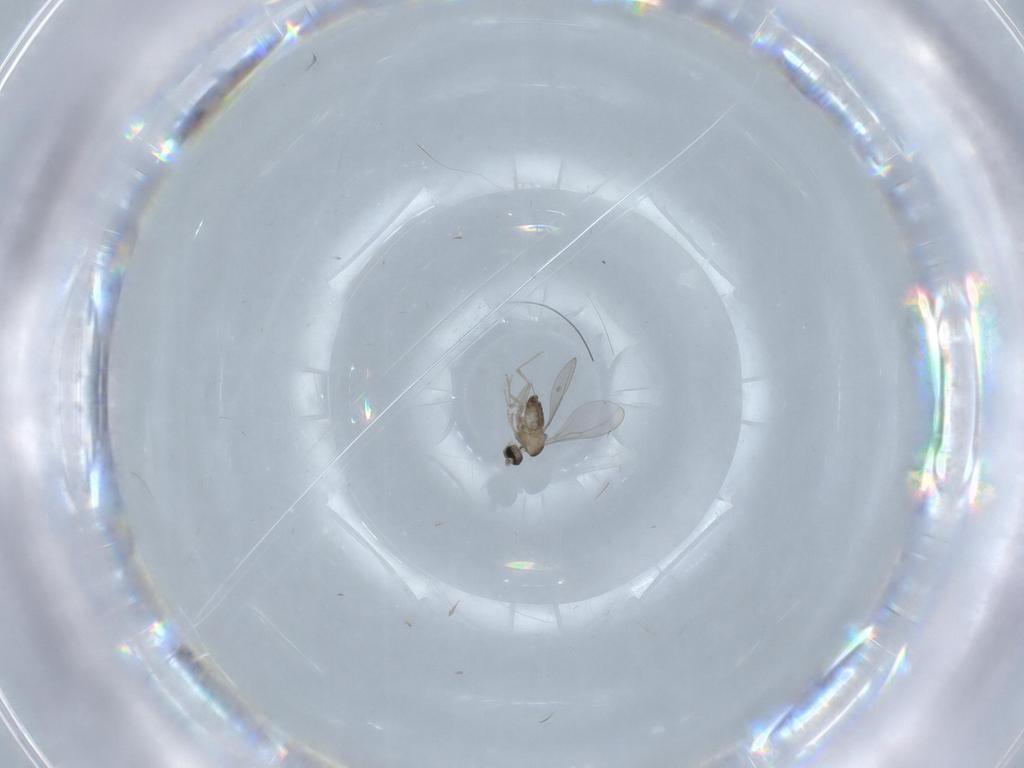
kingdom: Animalia
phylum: Arthropoda
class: Insecta
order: Diptera
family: Cecidomyiidae
